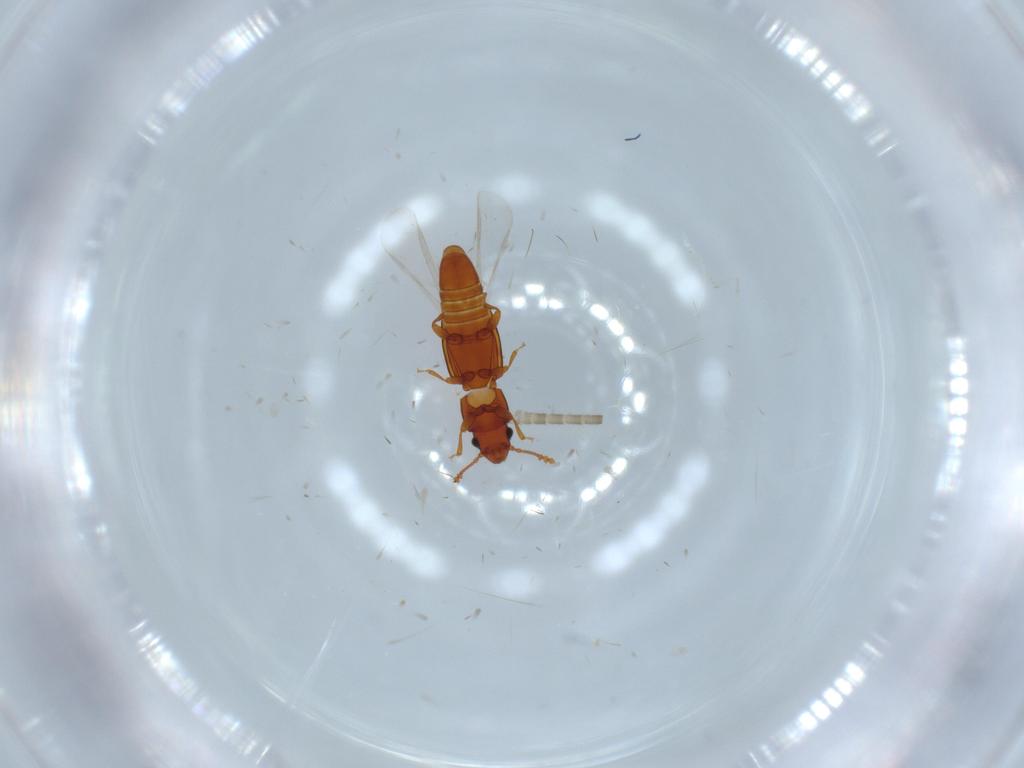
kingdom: Animalia
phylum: Arthropoda
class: Insecta
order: Coleoptera
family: Smicripidae
